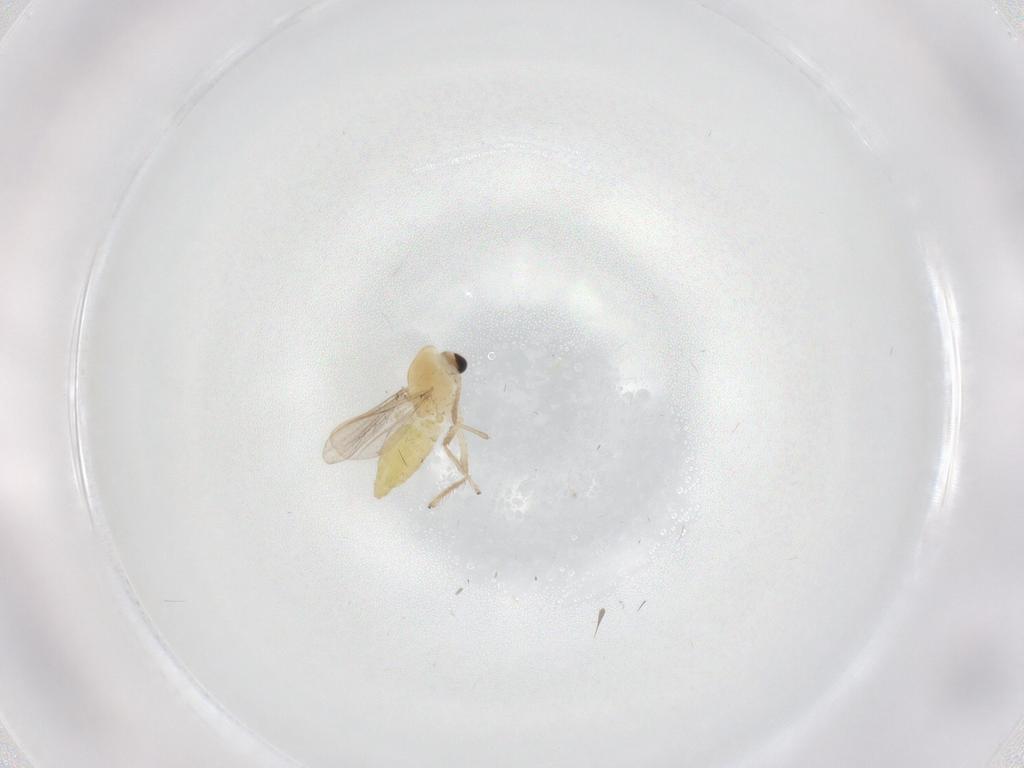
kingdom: Animalia
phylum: Arthropoda
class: Insecta
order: Diptera
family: Chironomidae
